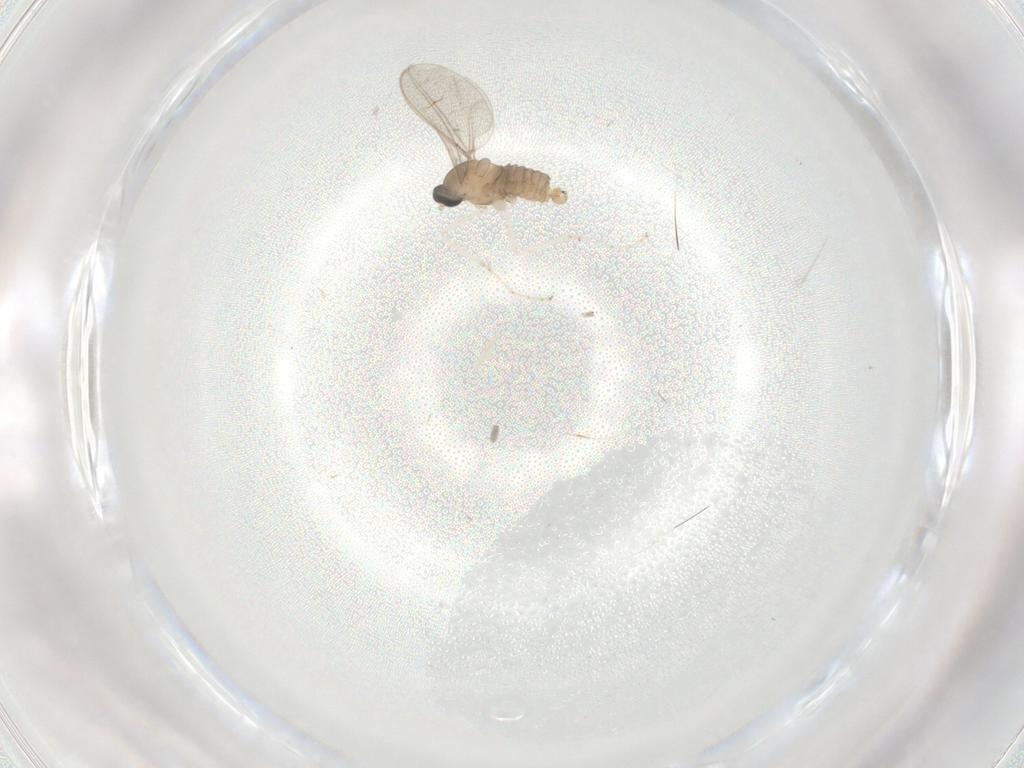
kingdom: Animalia
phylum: Arthropoda
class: Insecta
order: Diptera
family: Cecidomyiidae
